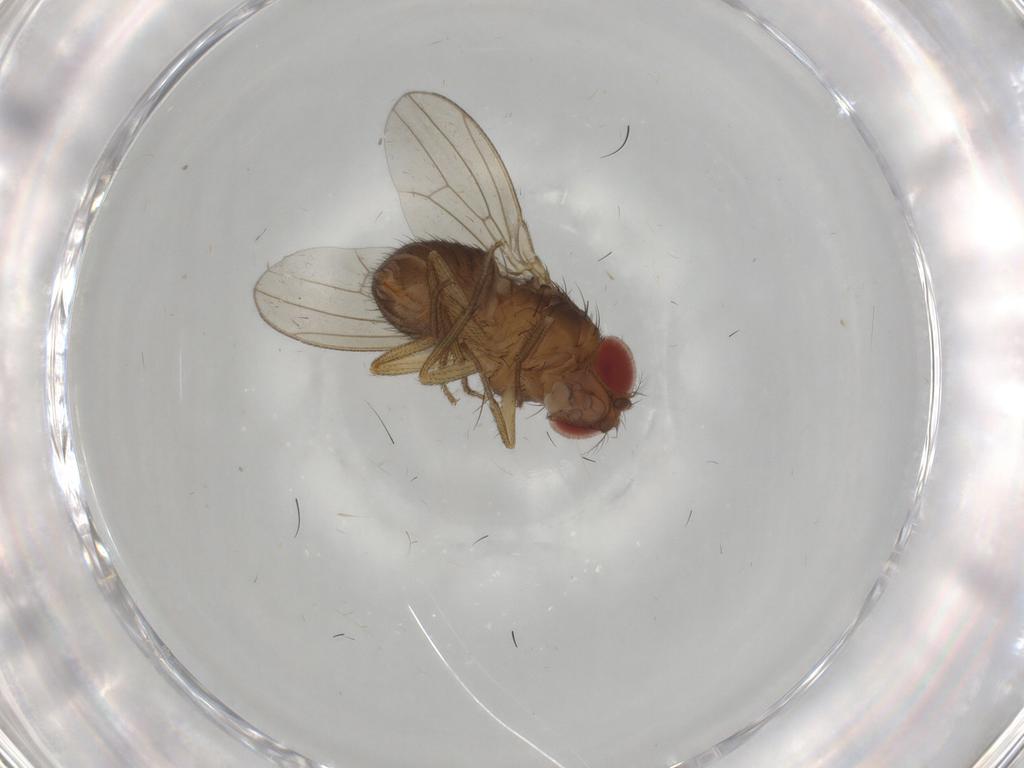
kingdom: Animalia
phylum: Arthropoda
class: Insecta
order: Diptera
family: Drosophilidae
